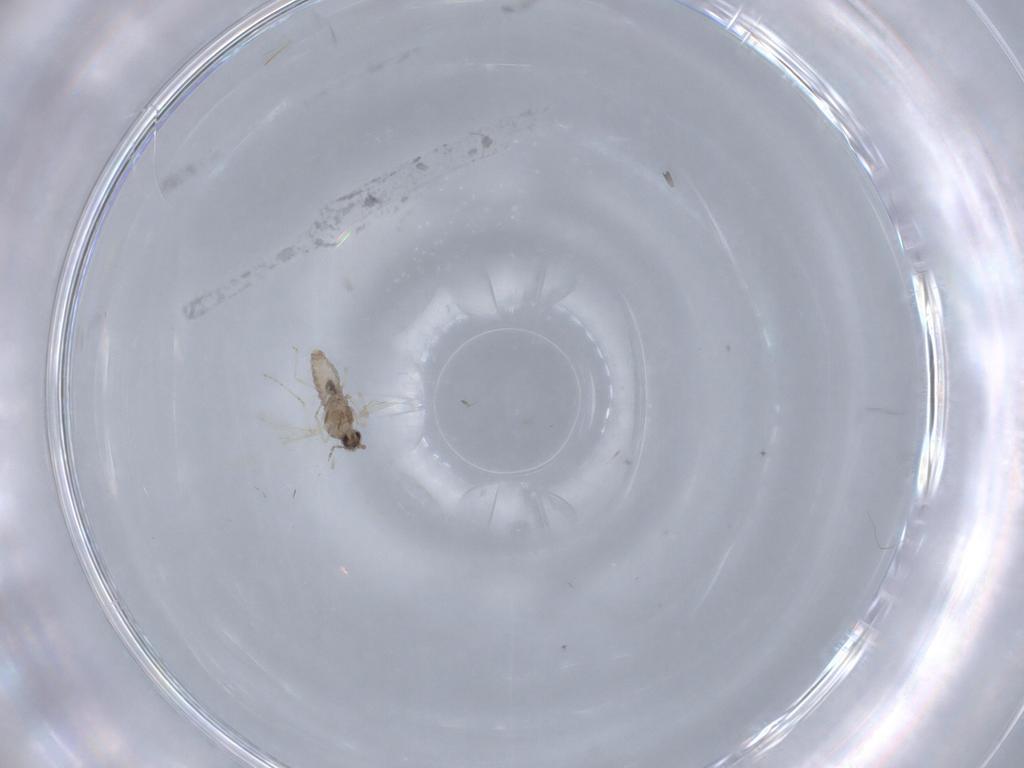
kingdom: Animalia
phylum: Arthropoda
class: Insecta
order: Diptera
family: Cecidomyiidae
